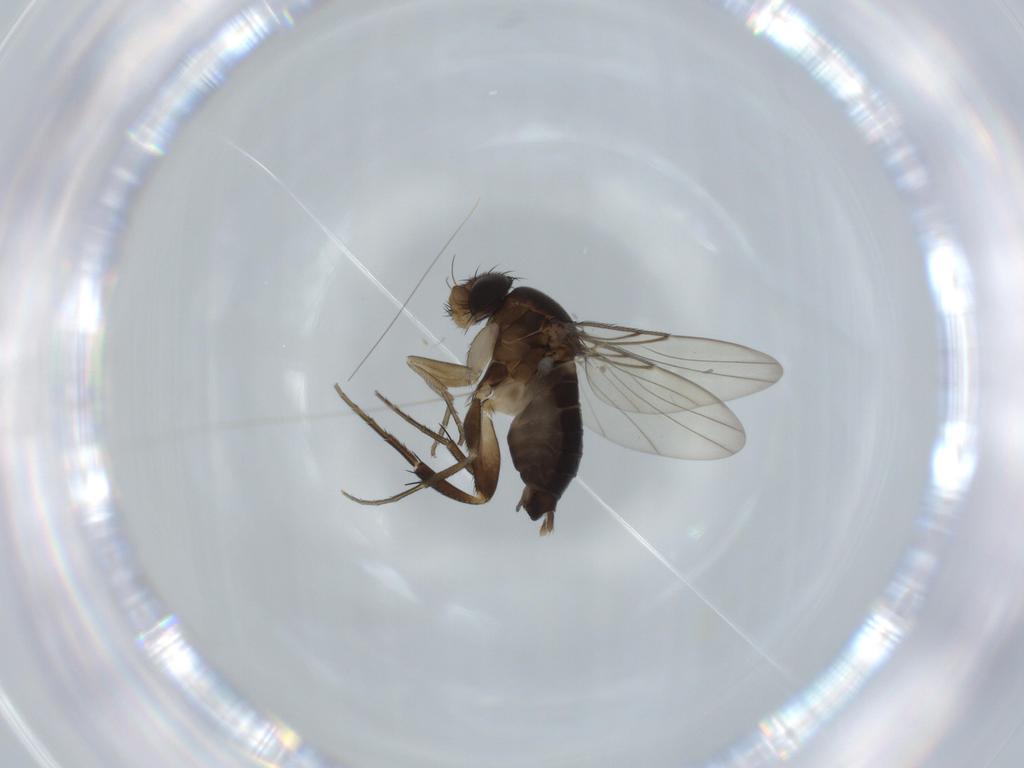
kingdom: Animalia
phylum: Arthropoda
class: Insecta
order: Diptera
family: Phoridae
